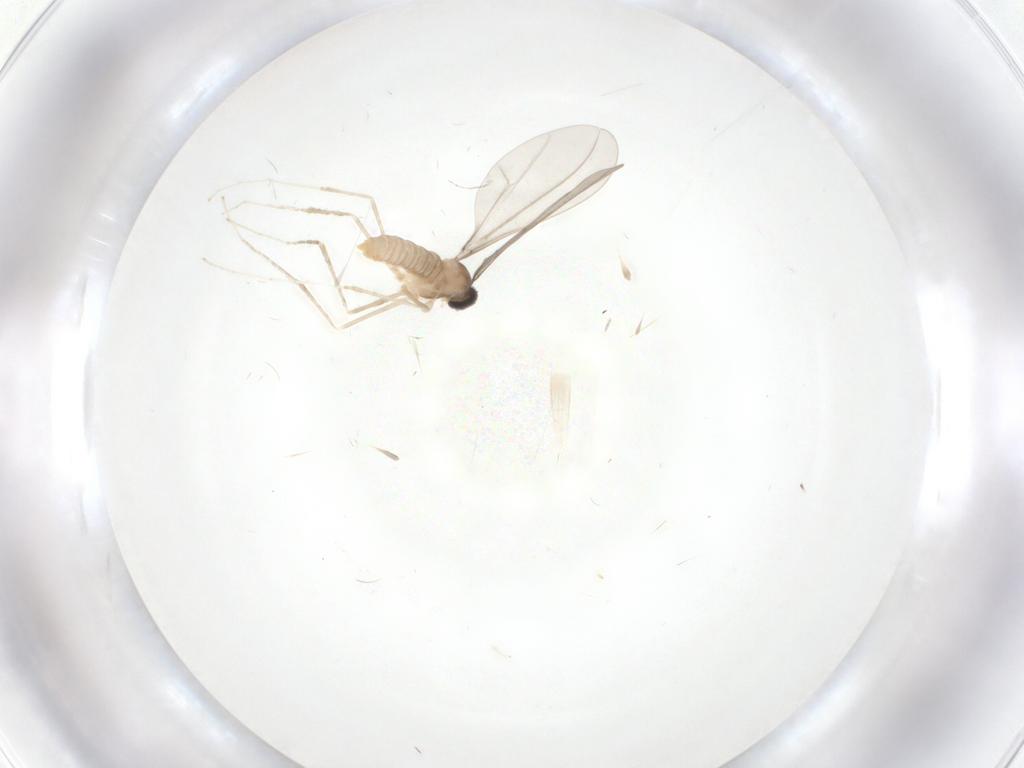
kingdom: Animalia
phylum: Arthropoda
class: Insecta
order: Diptera
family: Cecidomyiidae
